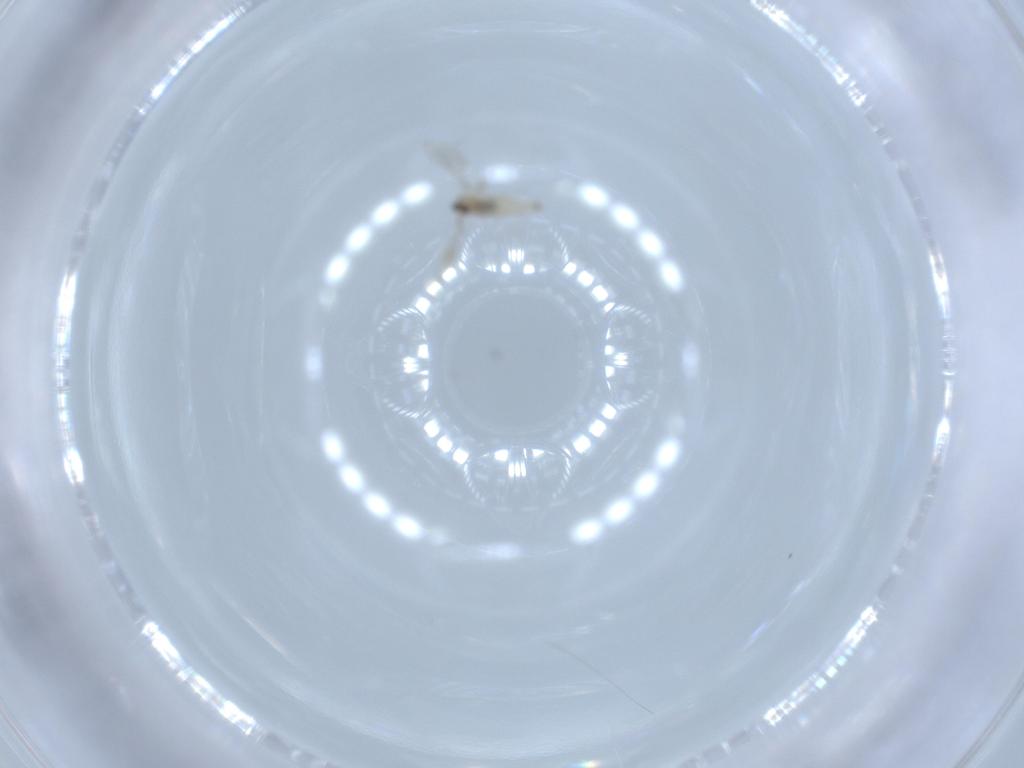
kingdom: Animalia
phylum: Arthropoda
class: Insecta
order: Diptera
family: Cecidomyiidae
